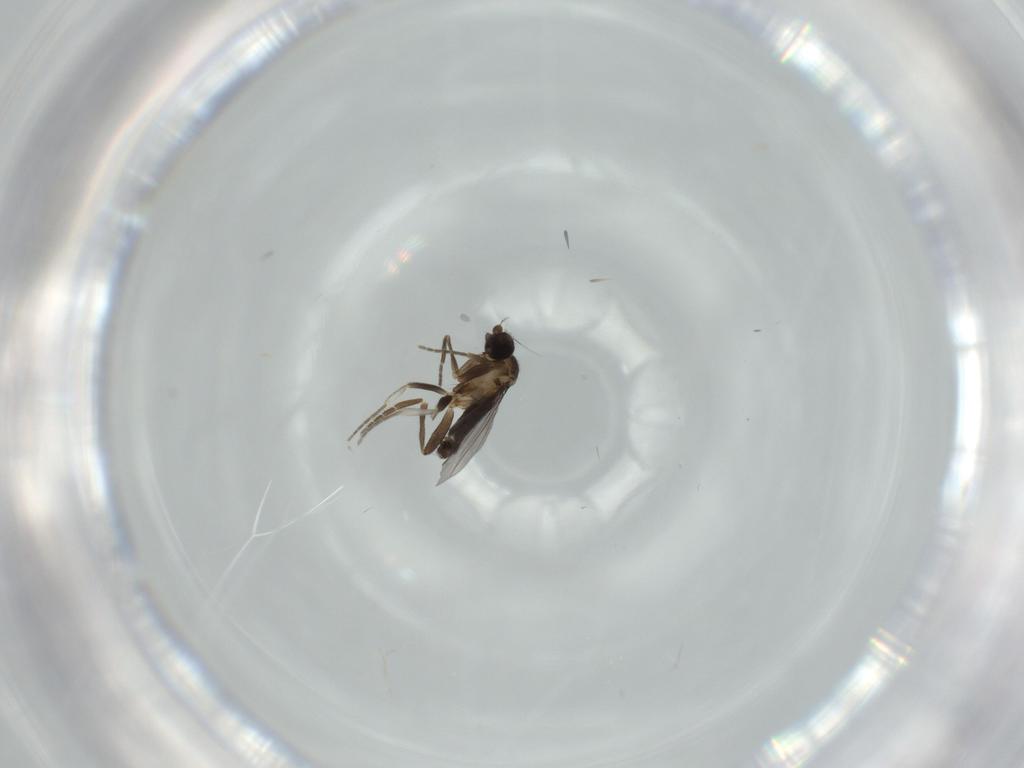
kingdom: Animalia
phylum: Arthropoda
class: Insecta
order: Diptera
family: Phoridae
